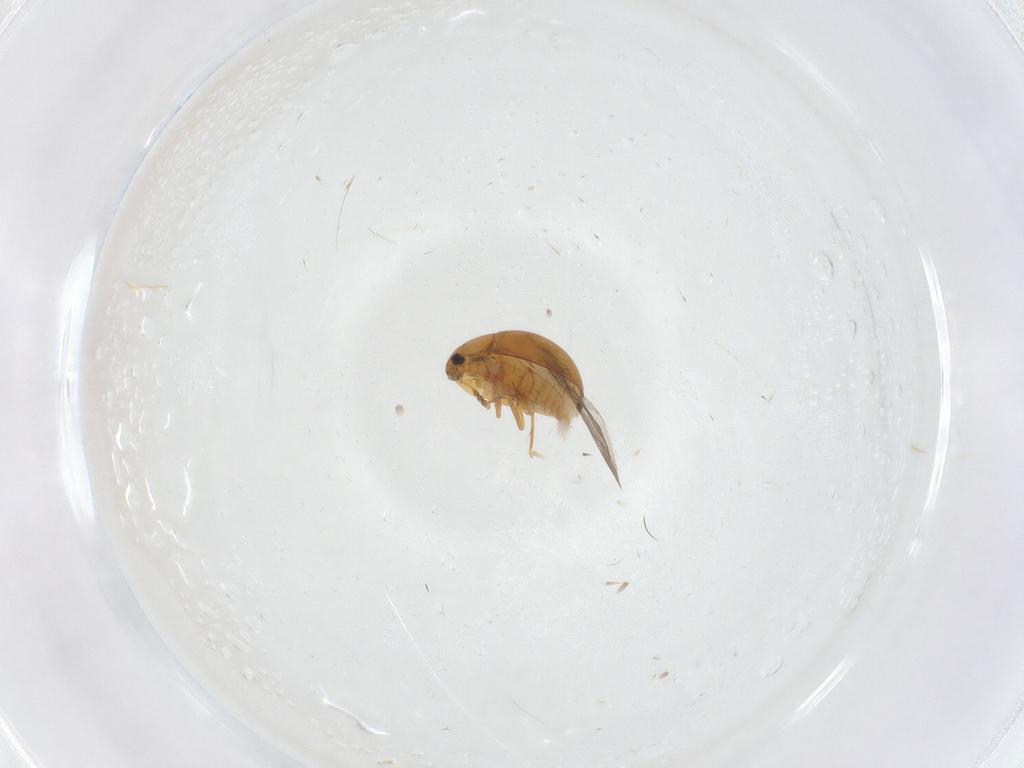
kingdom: Animalia
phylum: Arthropoda
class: Insecta
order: Coleoptera
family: Phalacridae
